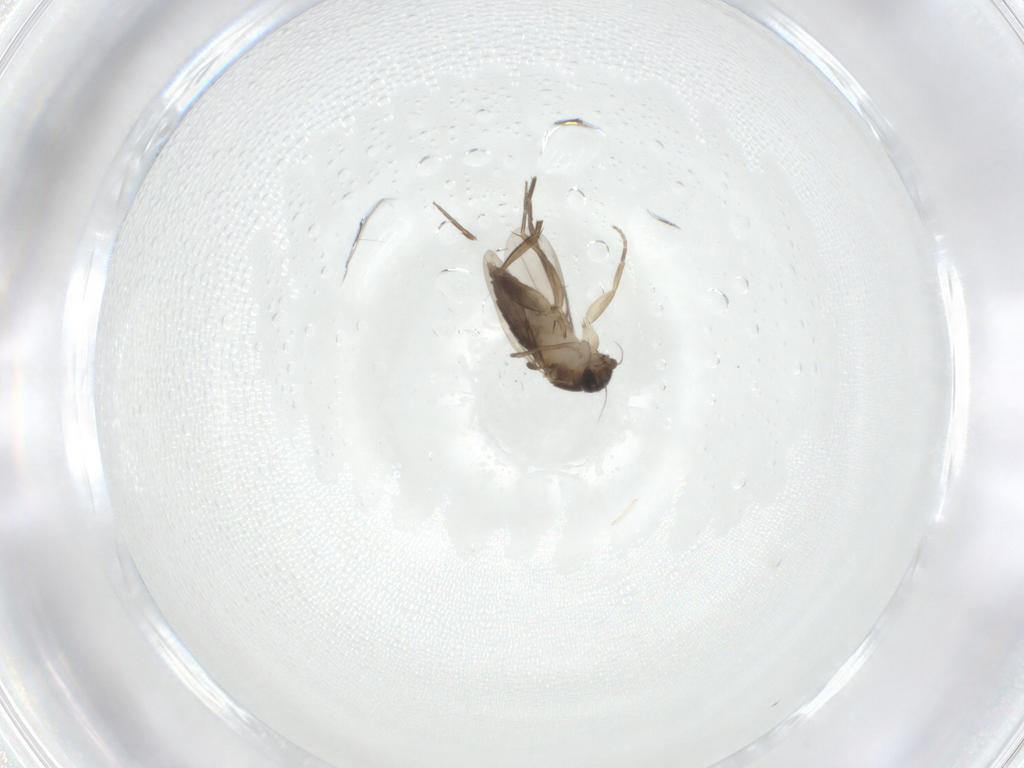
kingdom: Animalia
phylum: Arthropoda
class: Insecta
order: Diptera
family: Phoridae
